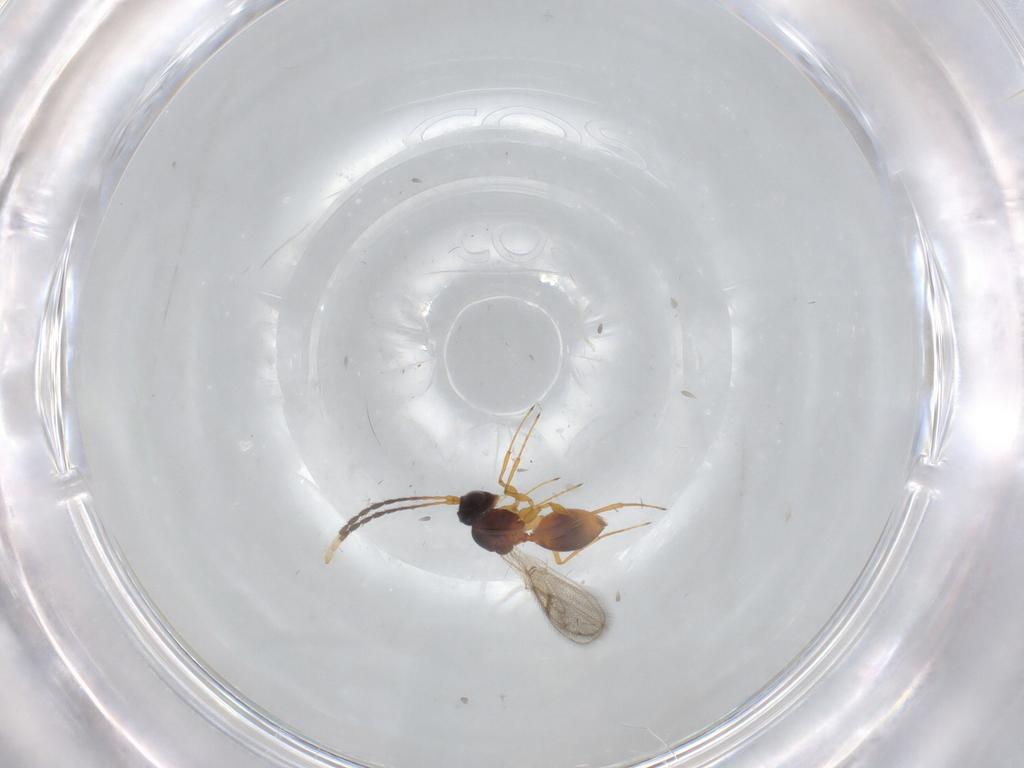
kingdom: Animalia
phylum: Arthropoda
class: Insecta
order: Hymenoptera
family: Figitidae
